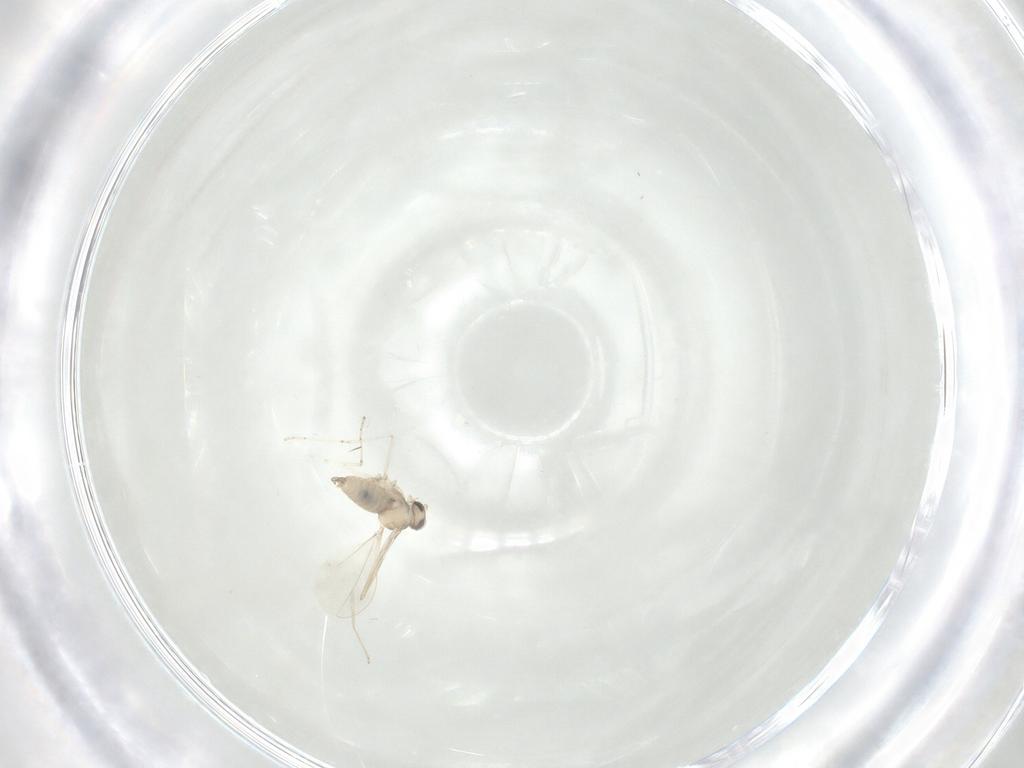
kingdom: Animalia
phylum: Arthropoda
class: Insecta
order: Diptera
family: Cecidomyiidae
